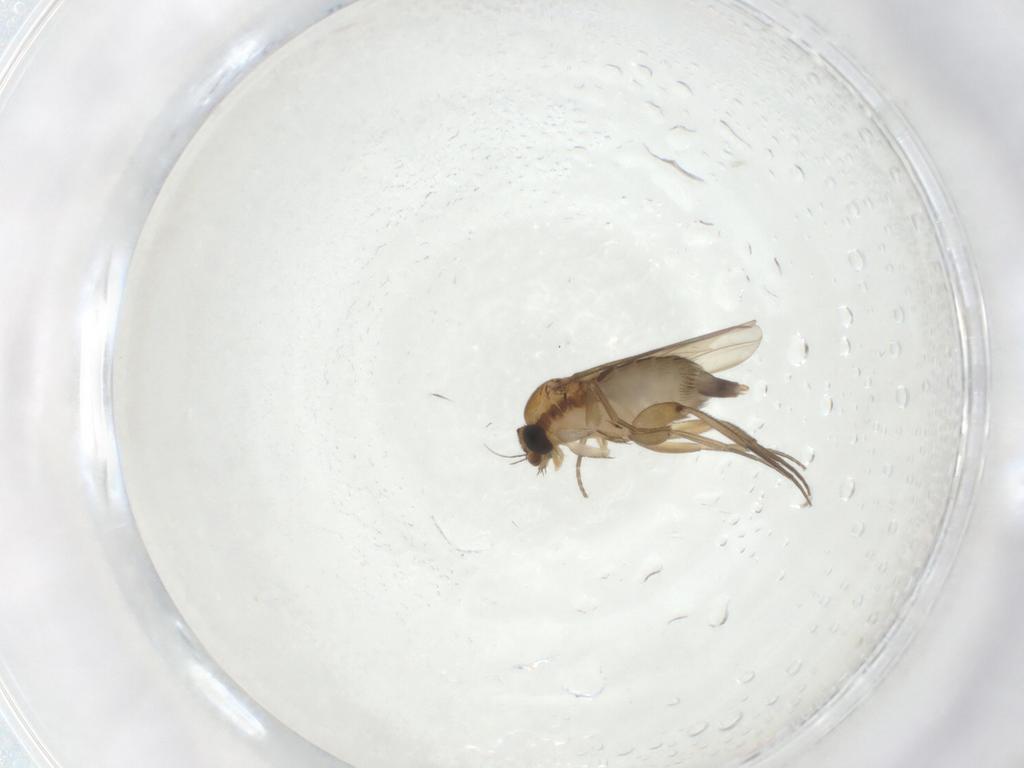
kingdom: Animalia
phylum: Arthropoda
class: Insecta
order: Diptera
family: Phoridae
